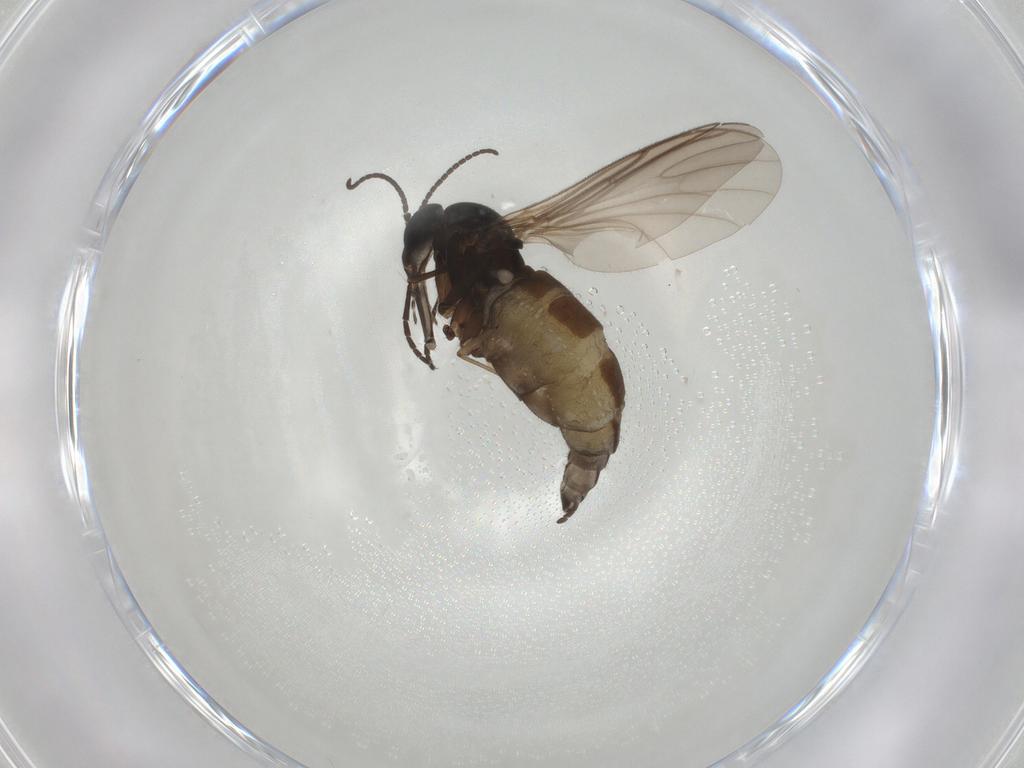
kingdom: Animalia
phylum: Arthropoda
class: Insecta
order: Diptera
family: Sciaridae
